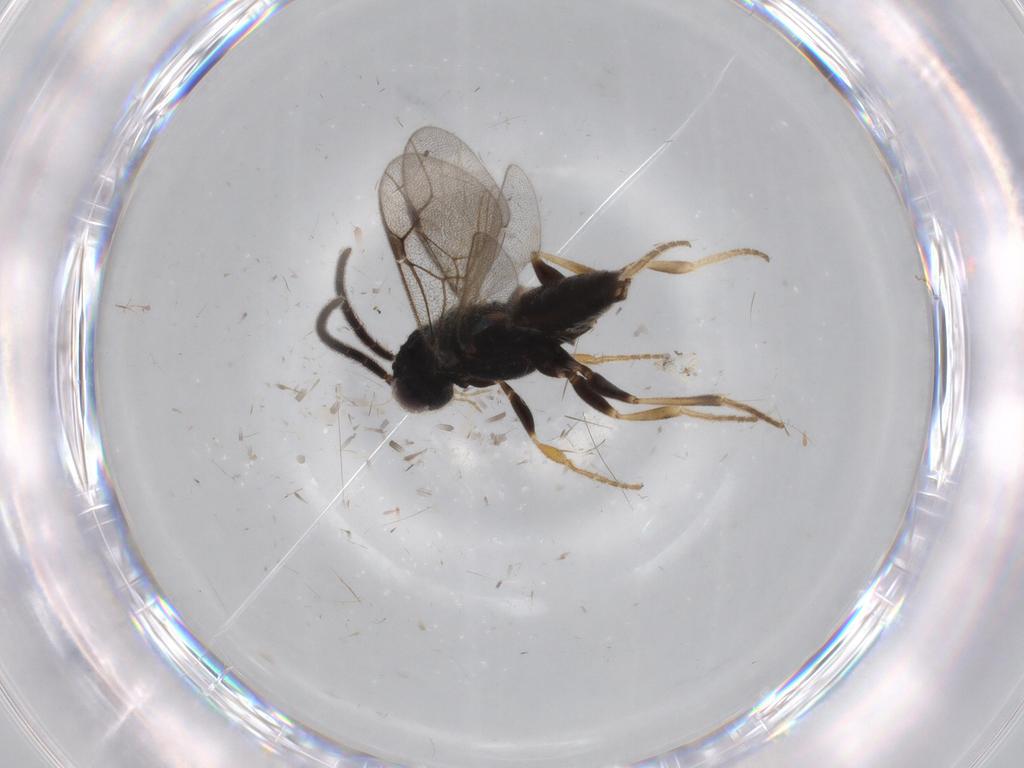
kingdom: Animalia
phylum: Arthropoda
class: Insecta
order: Hymenoptera
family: Dryinidae
